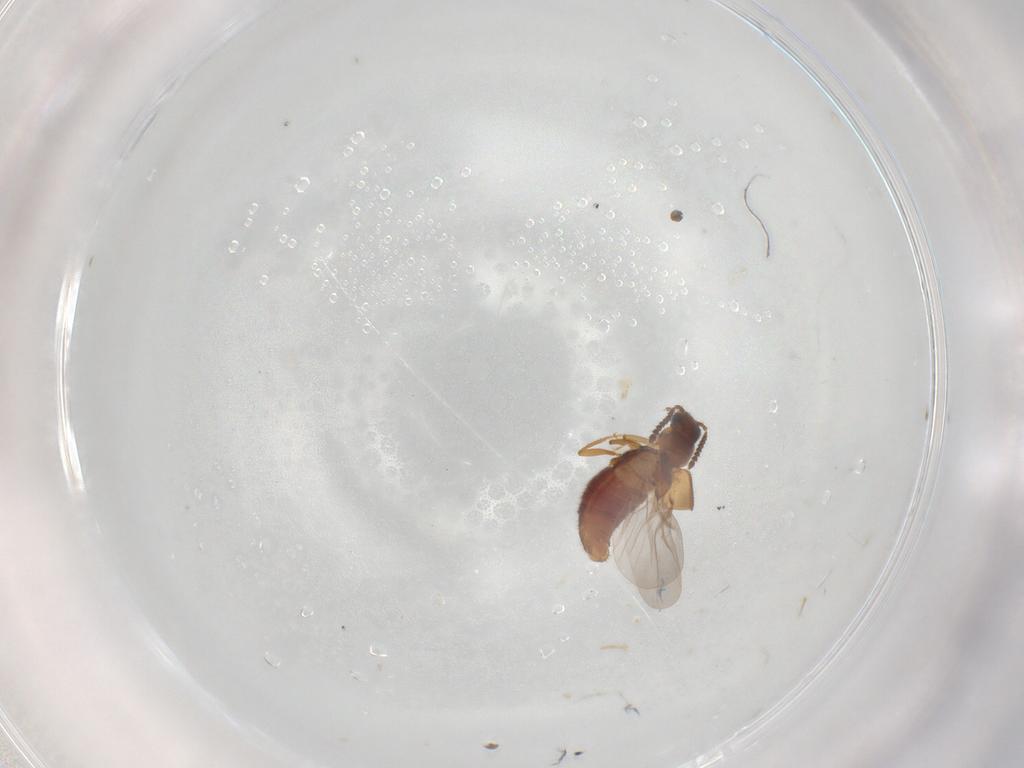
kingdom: Animalia
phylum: Arthropoda
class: Insecta
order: Coleoptera
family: Staphylinidae
